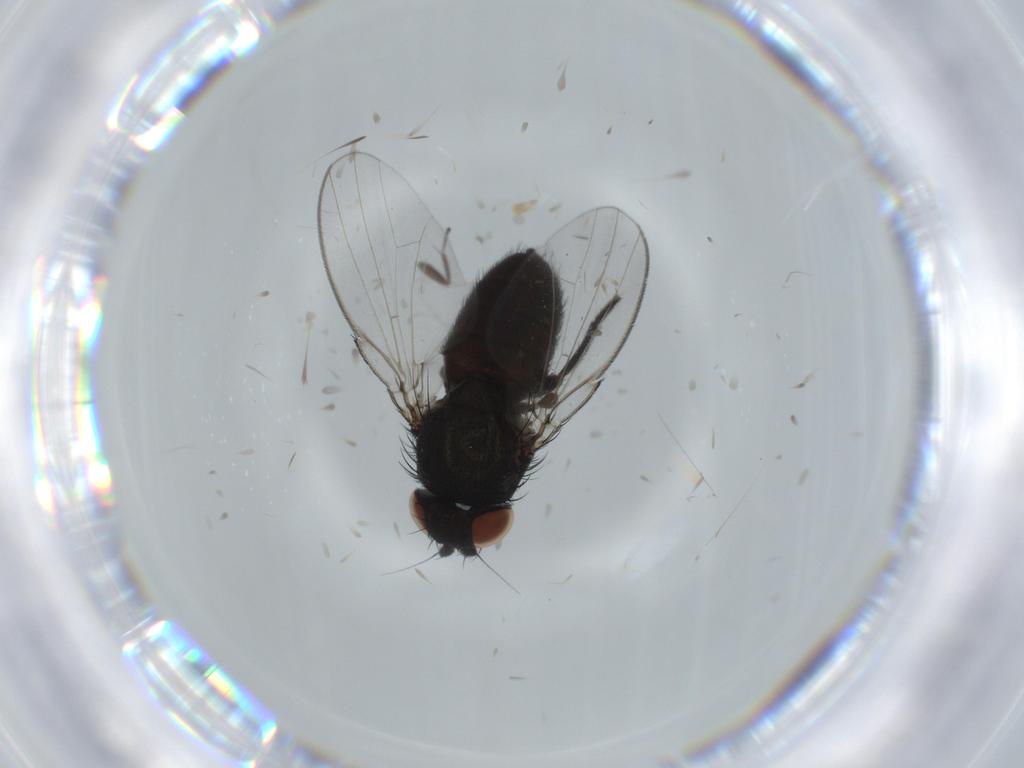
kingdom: Animalia
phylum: Arthropoda
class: Insecta
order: Diptera
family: Milichiidae
